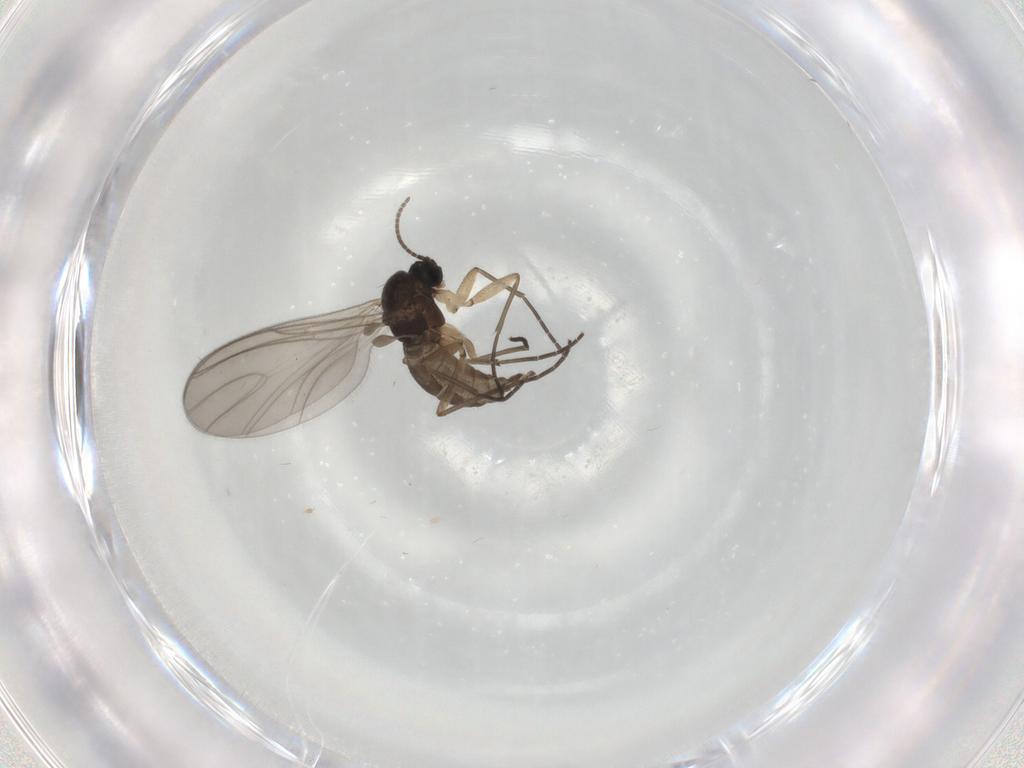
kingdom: Animalia
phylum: Arthropoda
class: Insecta
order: Diptera
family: Sciaridae
